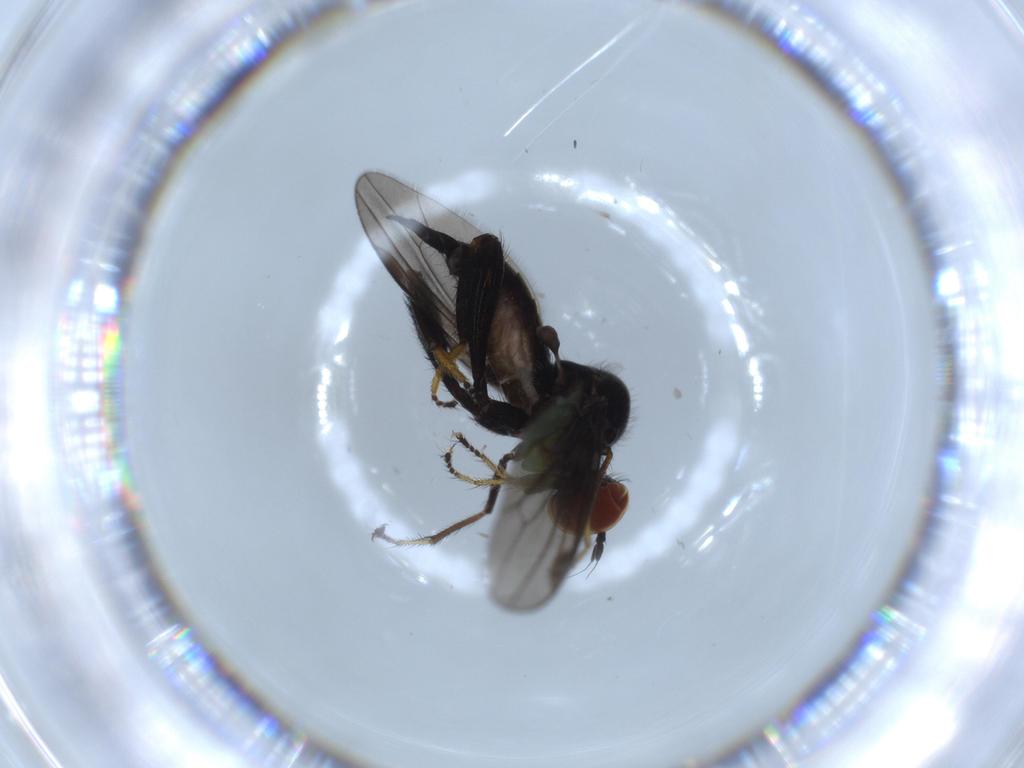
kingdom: Animalia
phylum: Arthropoda
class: Insecta
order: Diptera
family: Hybotidae
